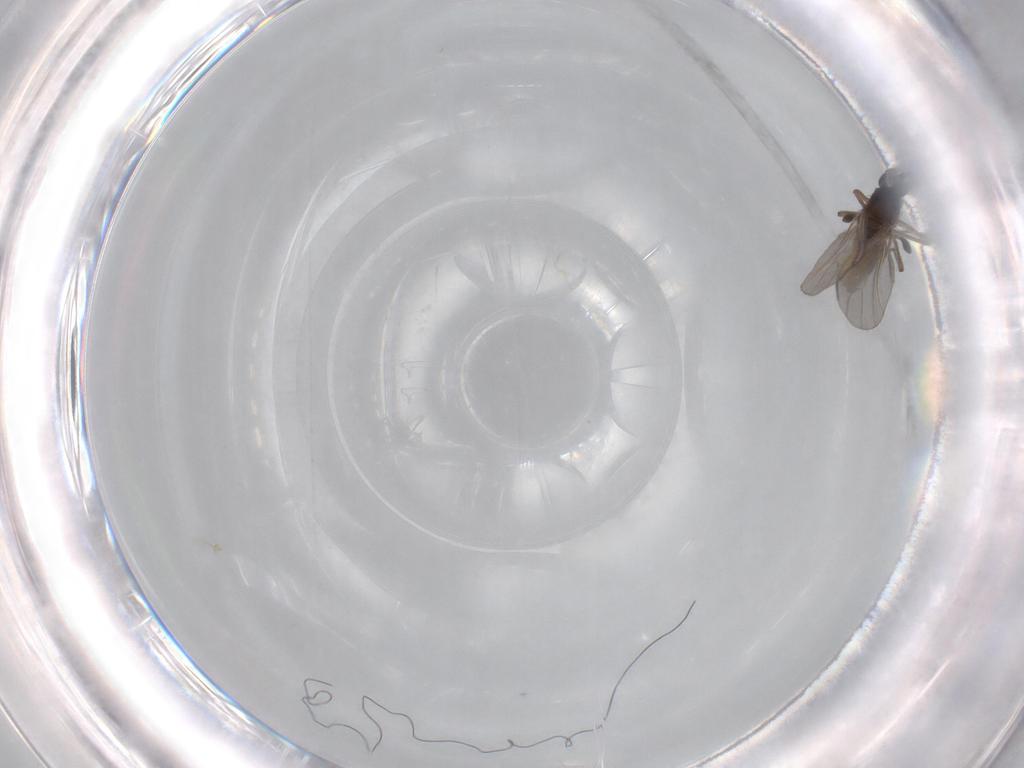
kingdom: Animalia
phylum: Arthropoda
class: Insecta
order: Diptera
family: Sciaridae
